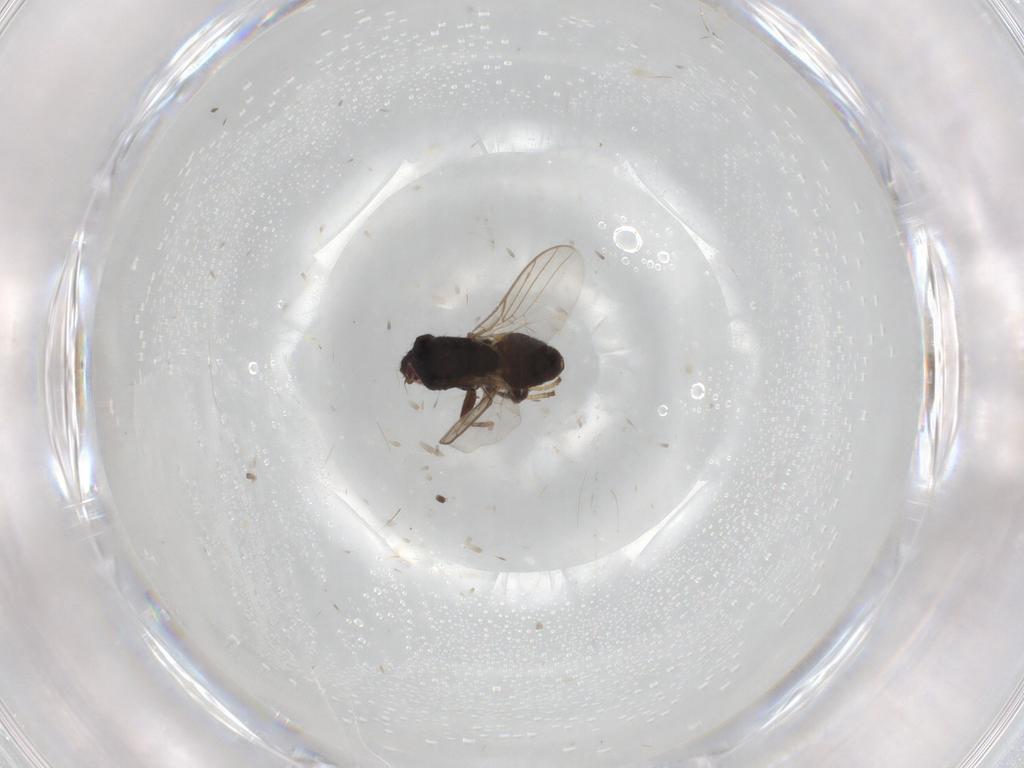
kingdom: Animalia
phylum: Arthropoda
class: Insecta
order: Diptera
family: Chloropidae
